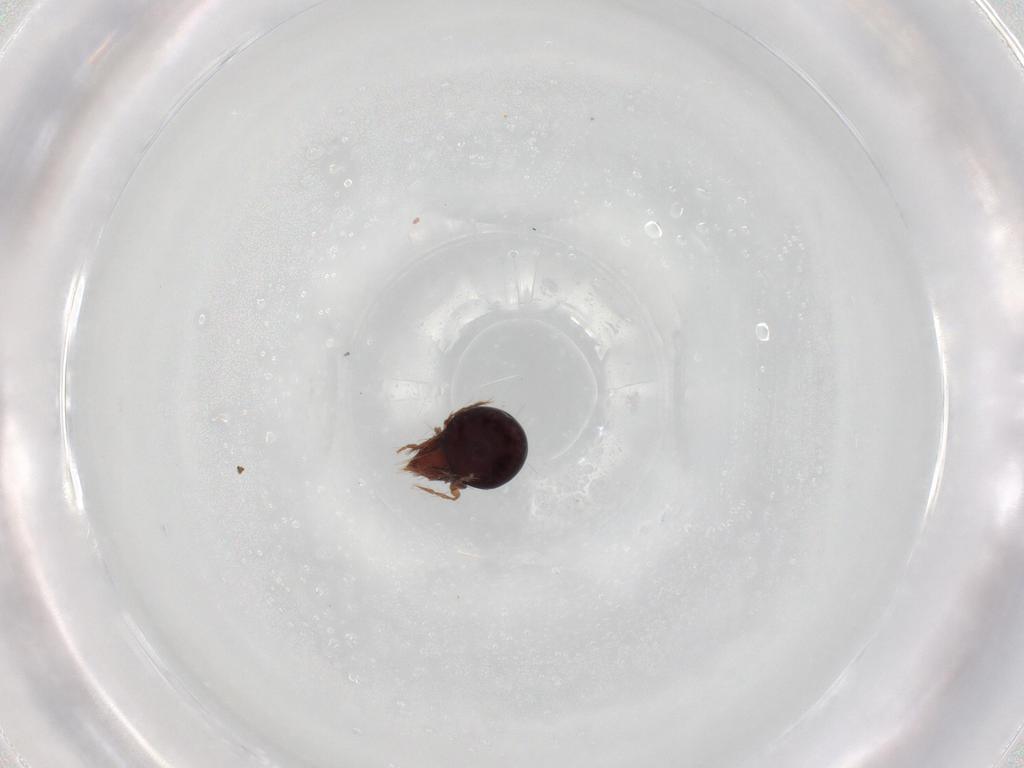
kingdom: Animalia
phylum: Arthropoda
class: Arachnida
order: Sarcoptiformes
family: Ceratoppiidae
